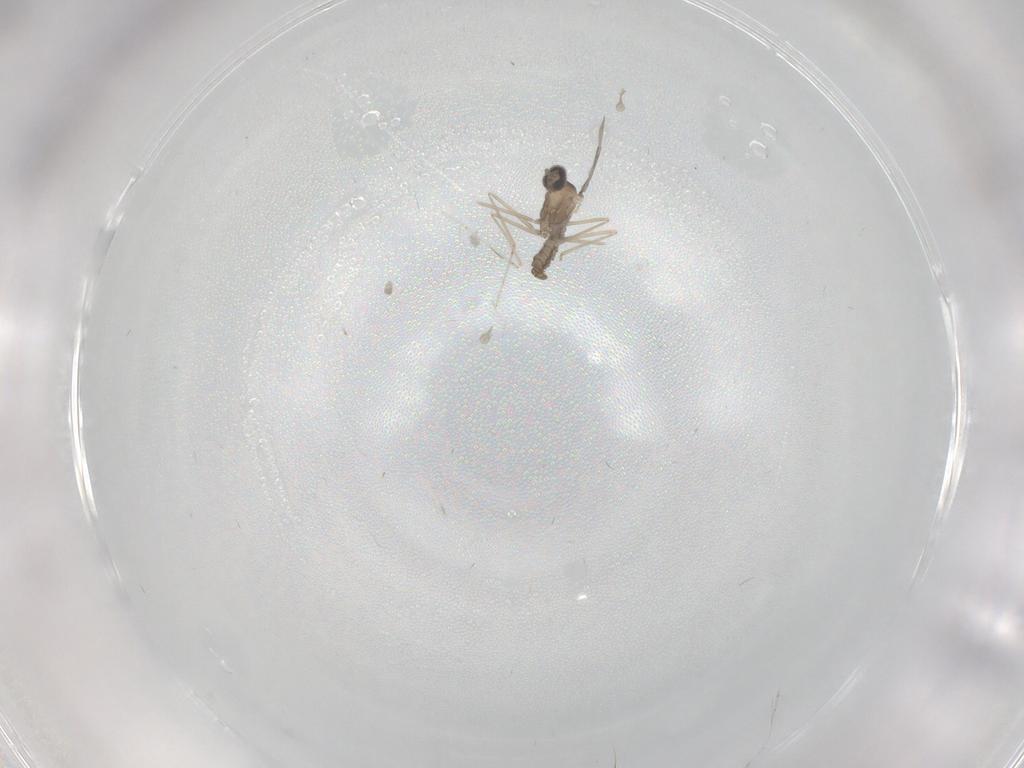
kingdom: Animalia
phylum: Arthropoda
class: Insecta
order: Diptera
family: Cecidomyiidae
